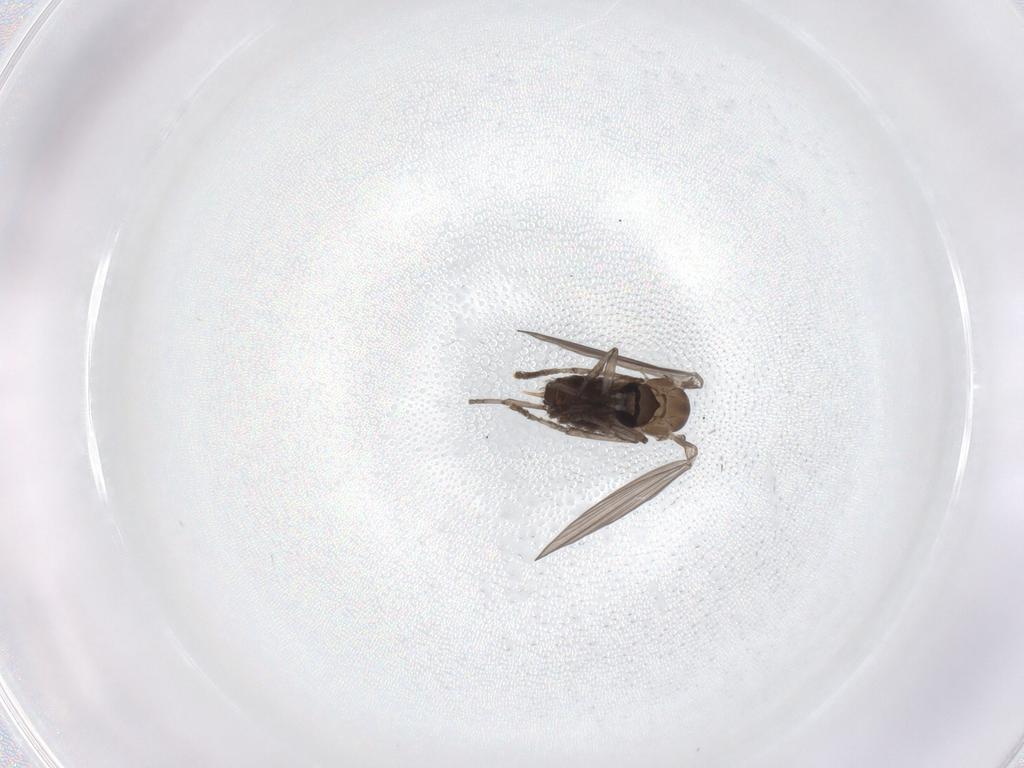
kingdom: Animalia
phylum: Arthropoda
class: Insecta
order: Diptera
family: Psychodidae
